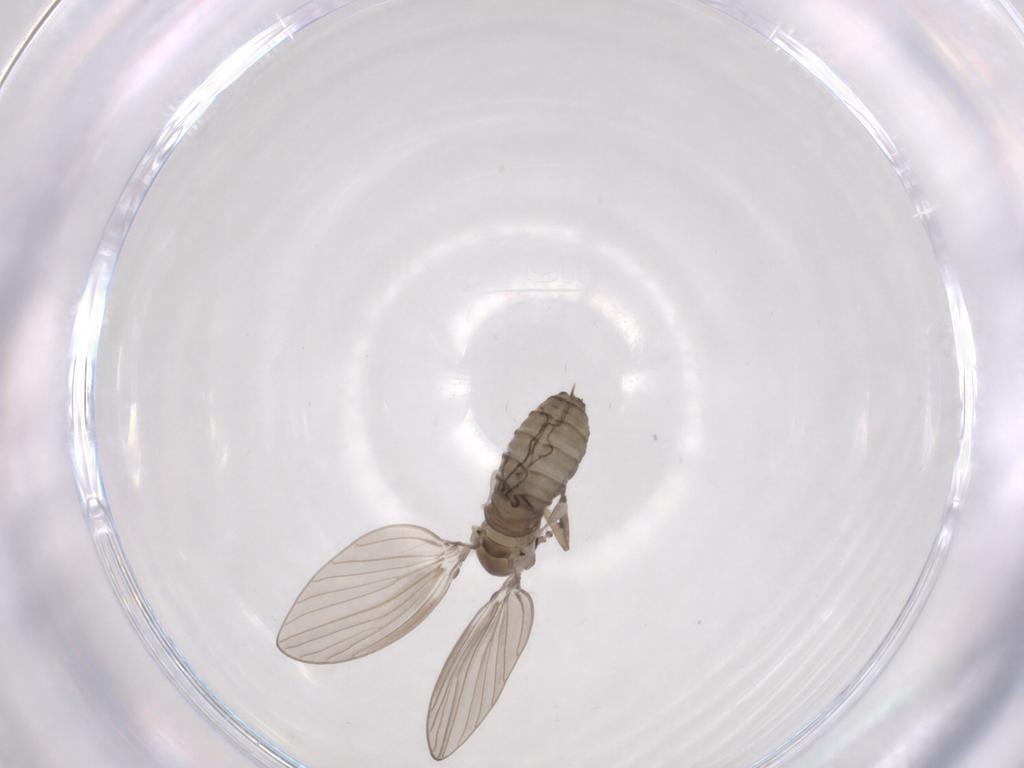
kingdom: Animalia
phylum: Arthropoda
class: Insecta
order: Diptera
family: Psychodidae
